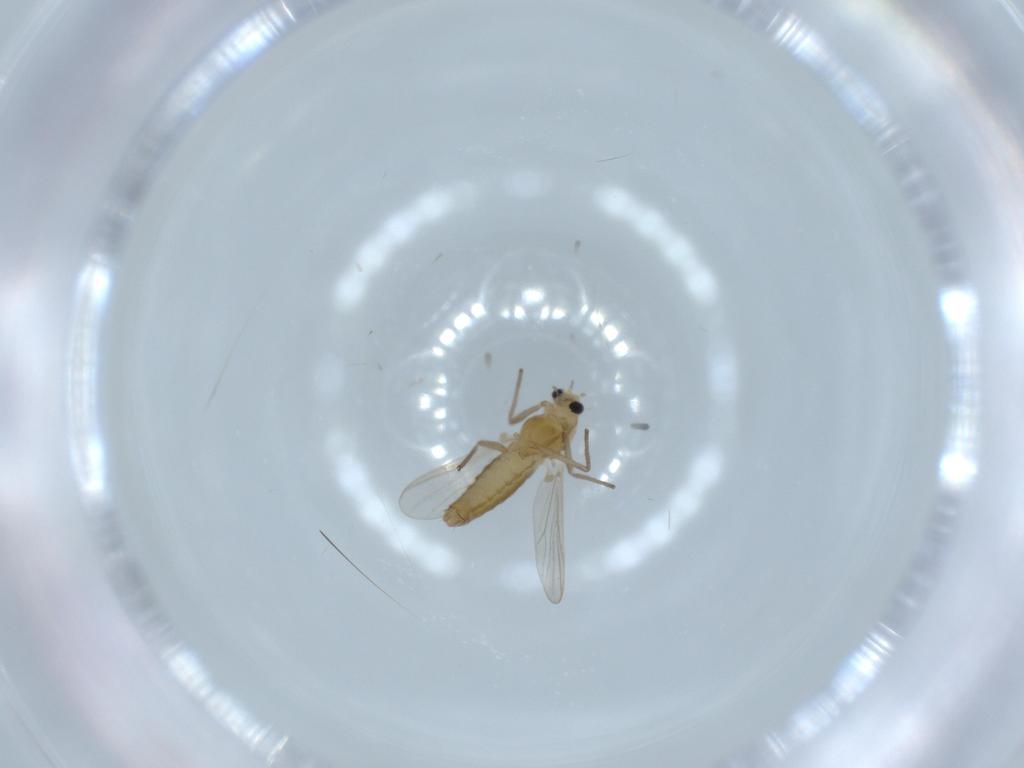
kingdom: Animalia
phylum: Arthropoda
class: Insecta
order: Diptera
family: Chironomidae
